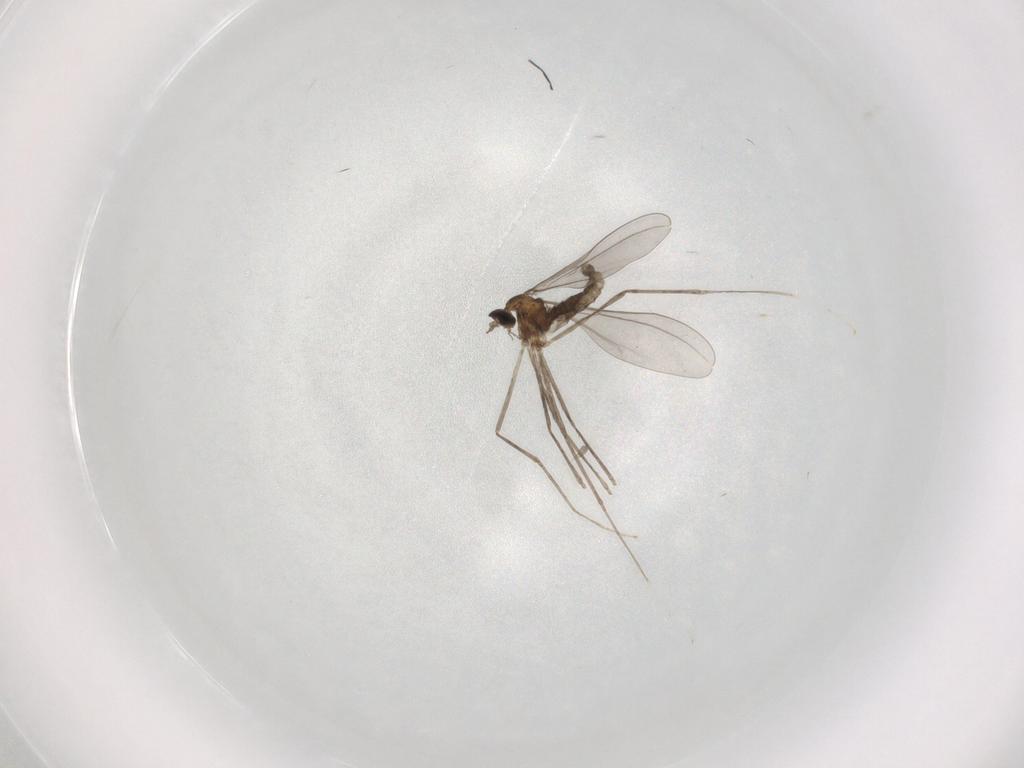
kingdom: Animalia
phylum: Arthropoda
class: Insecta
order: Diptera
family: Cecidomyiidae
